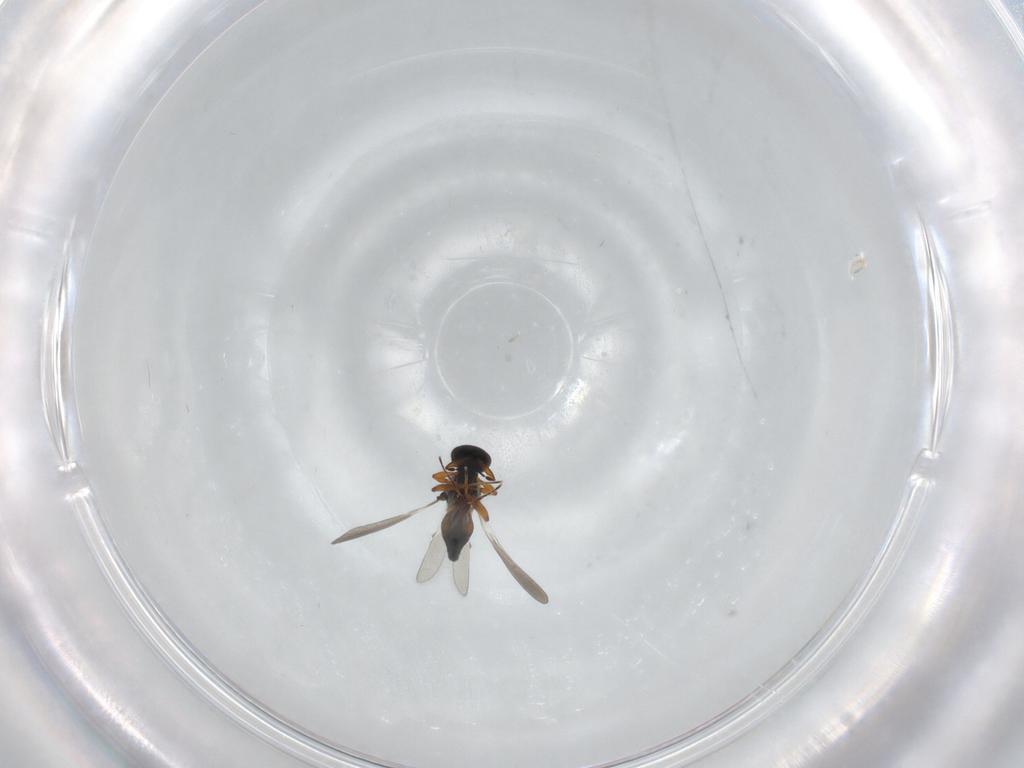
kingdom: Animalia
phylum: Arthropoda
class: Insecta
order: Hymenoptera
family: Platygastridae
